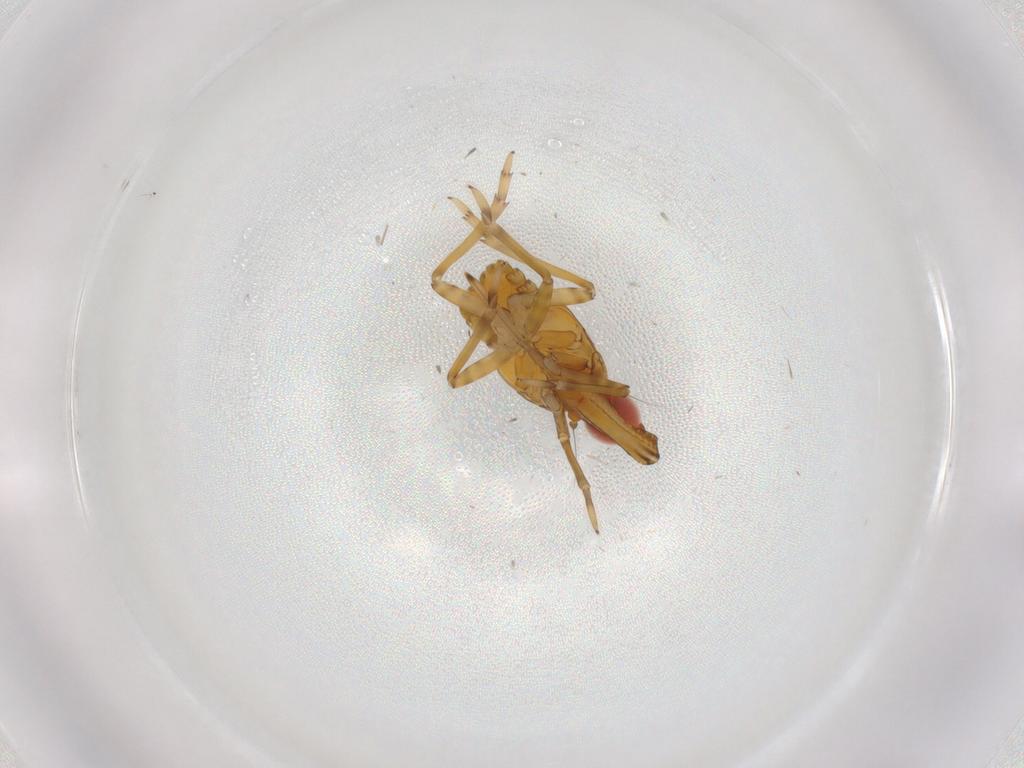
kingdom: Animalia
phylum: Arthropoda
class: Insecta
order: Hemiptera
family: Fulgoroidea_incertae_sedis
